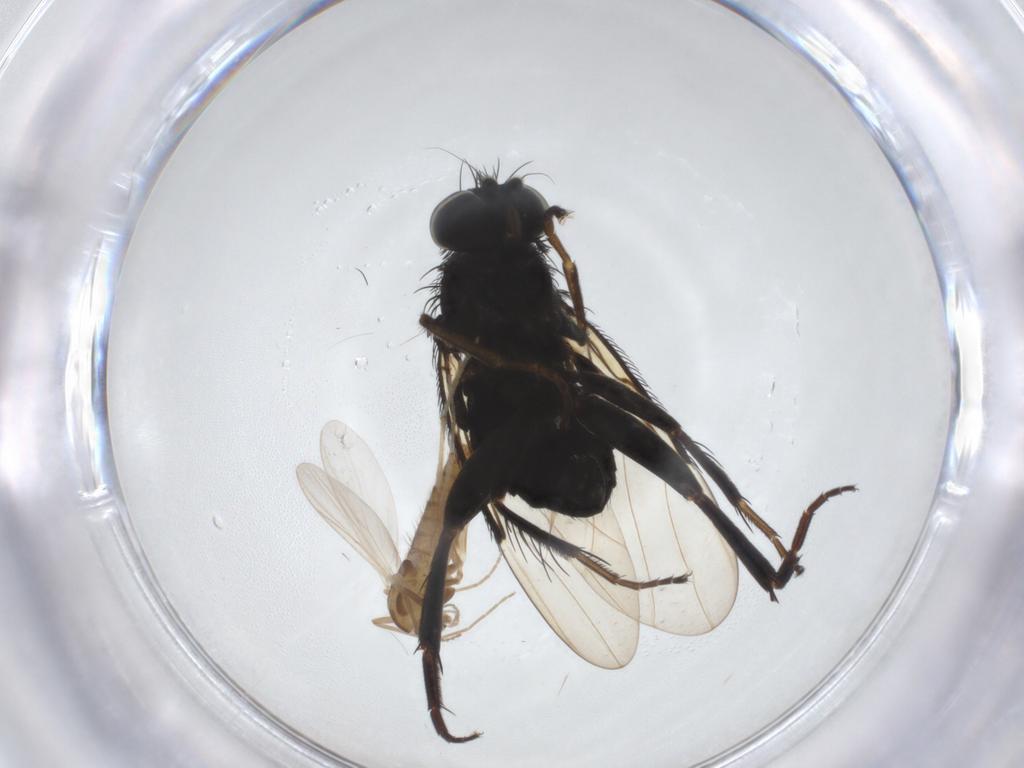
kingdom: Animalia
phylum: Arthropoda
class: Insecta
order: Diptera
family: Chironomidae
